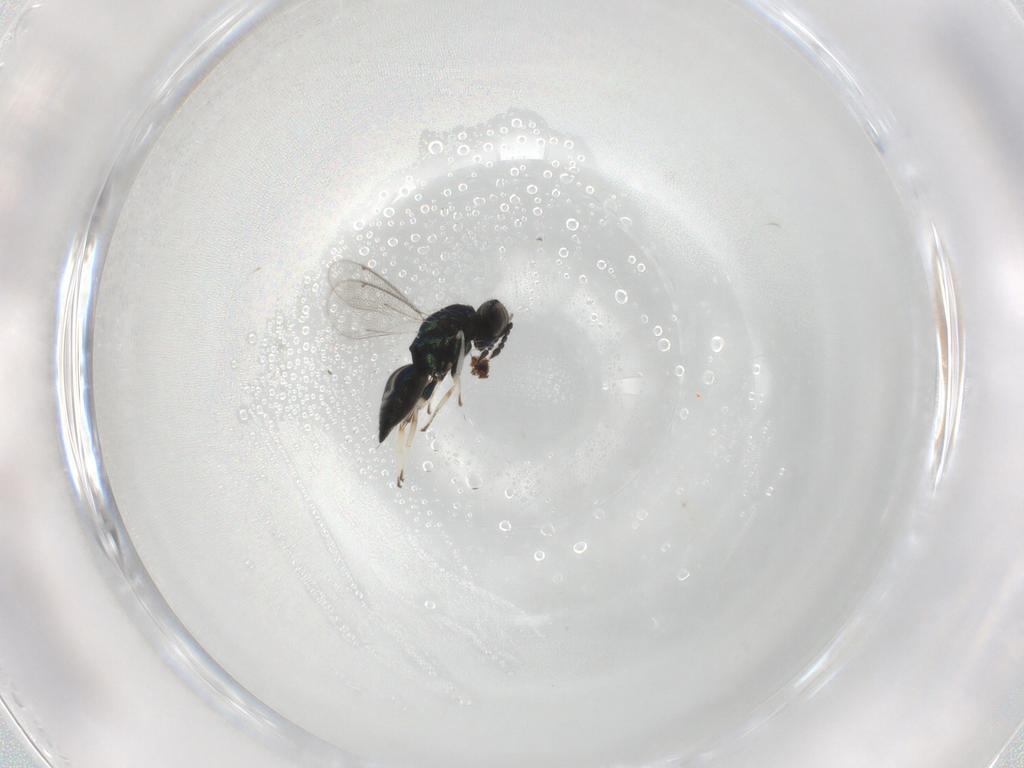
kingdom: Animalia
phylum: Arthropoda
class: Insecta
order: Hymenoptera
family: Eulophidae
